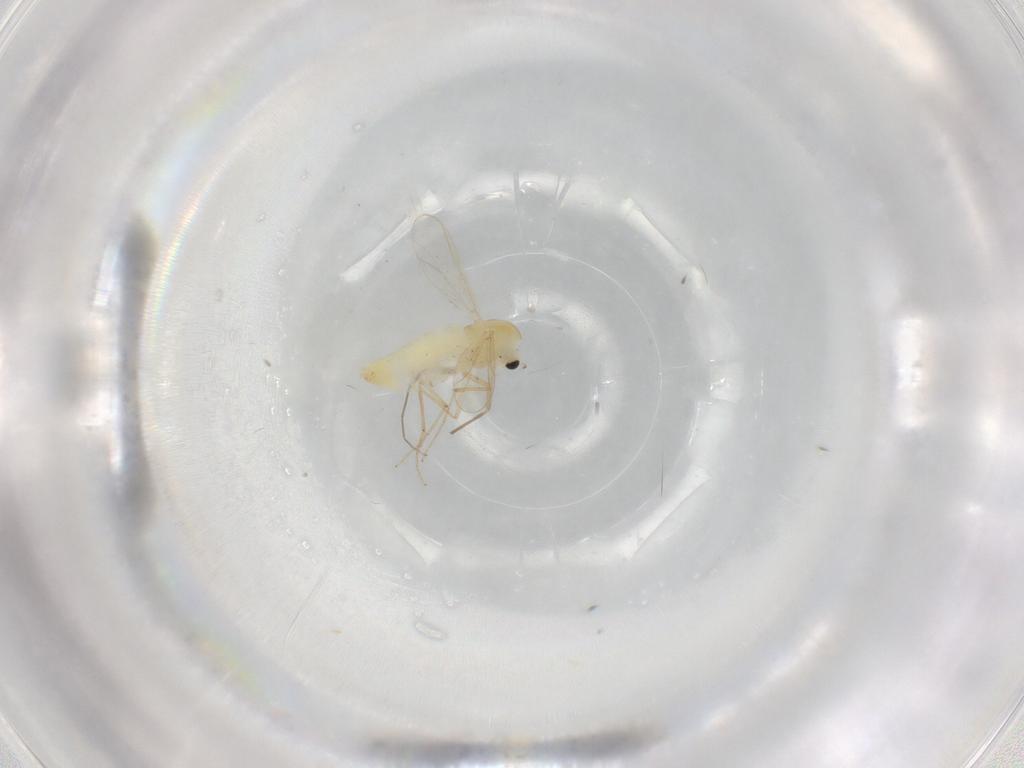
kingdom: Animalia
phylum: Arthropoda
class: Insecta
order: Diptera
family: Chironomidae
